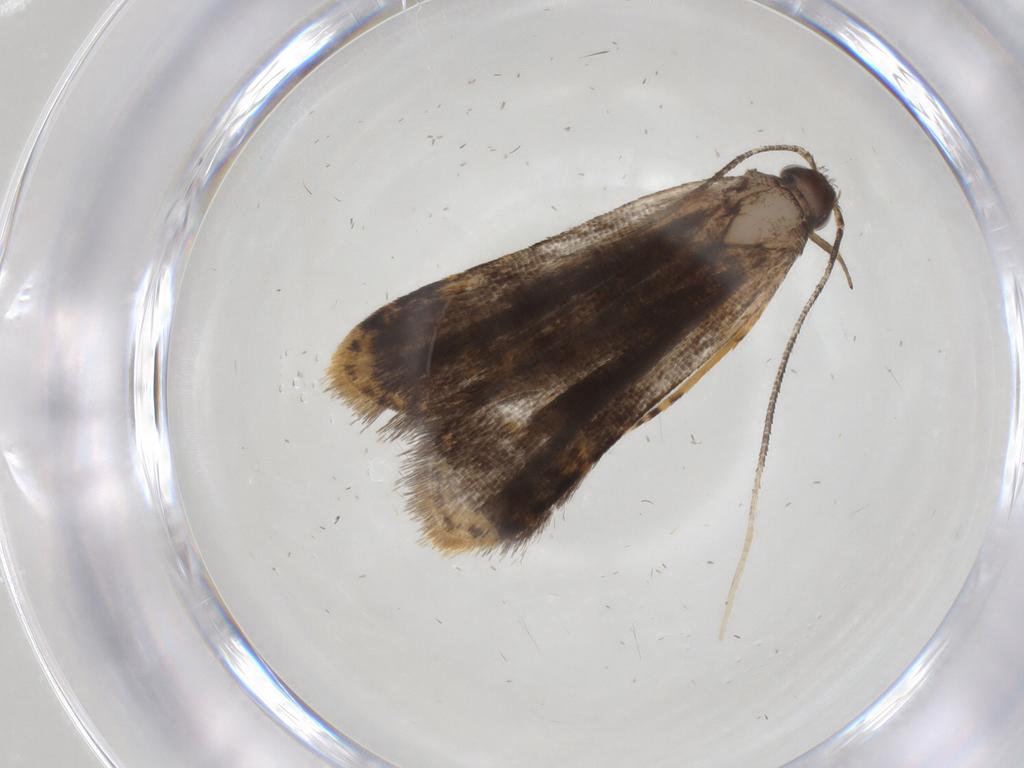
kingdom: Animalia
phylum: Arthropoda
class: Insecta
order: Lepidoptera
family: Cosmopterigidae
